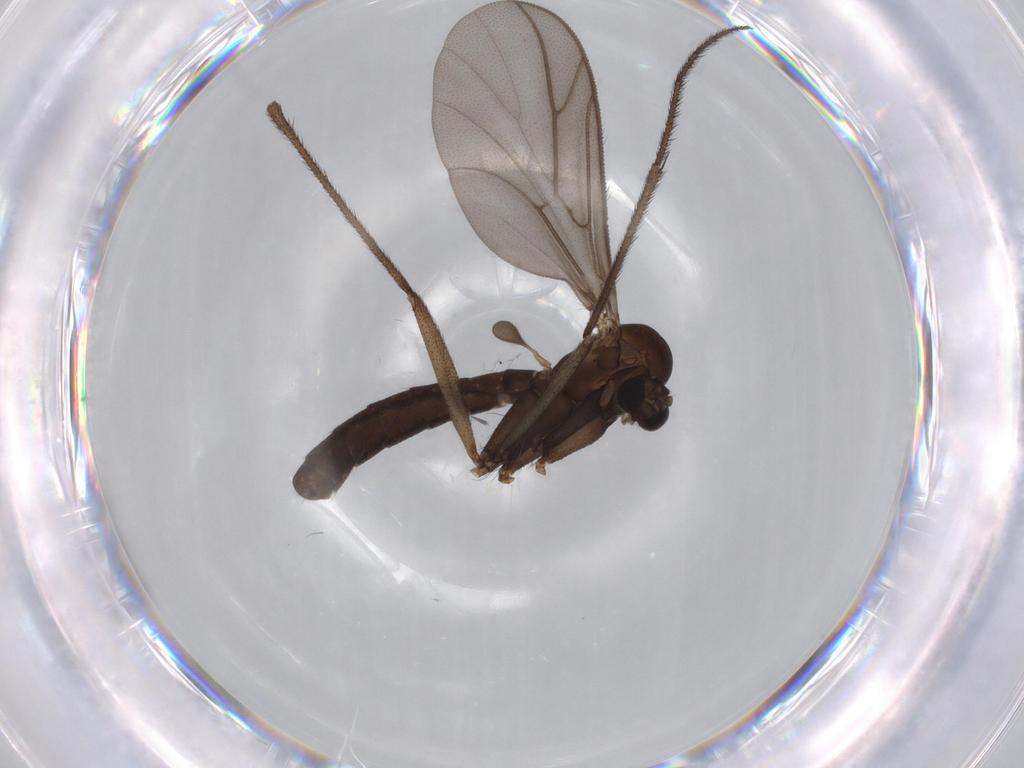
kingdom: Animalia
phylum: Arthropoda
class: Insecta
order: Diptera
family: Ditomyiidae
